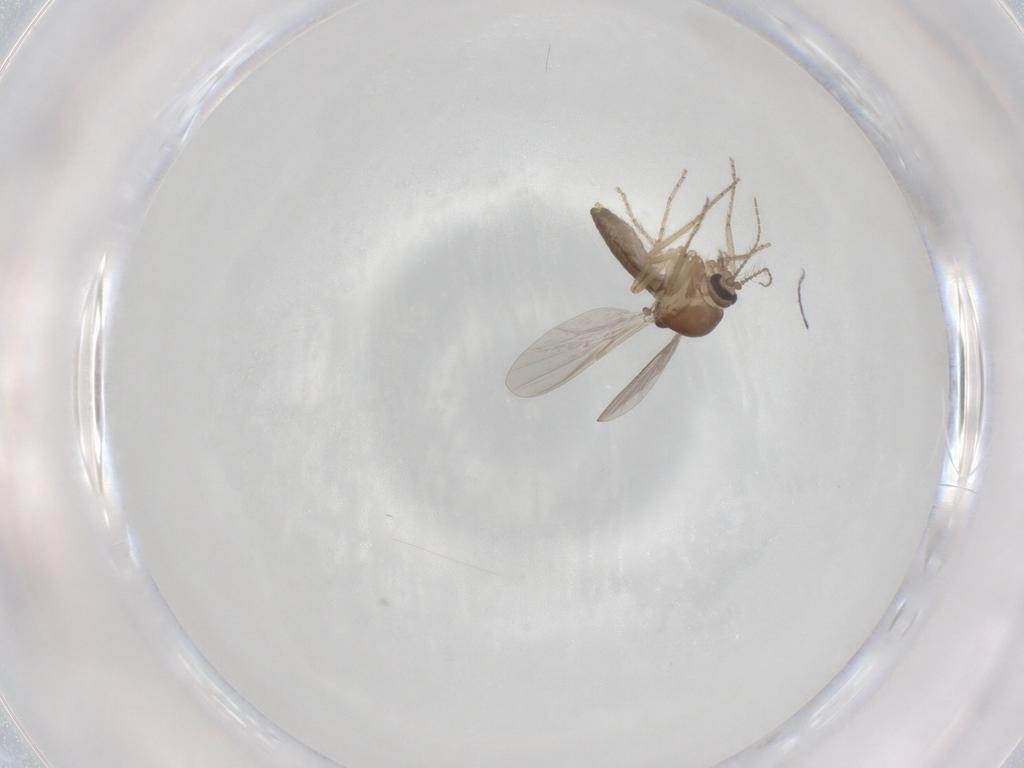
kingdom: Animalia
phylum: Arthropoda
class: Insecta
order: Diptera
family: Ceratopogonidae
